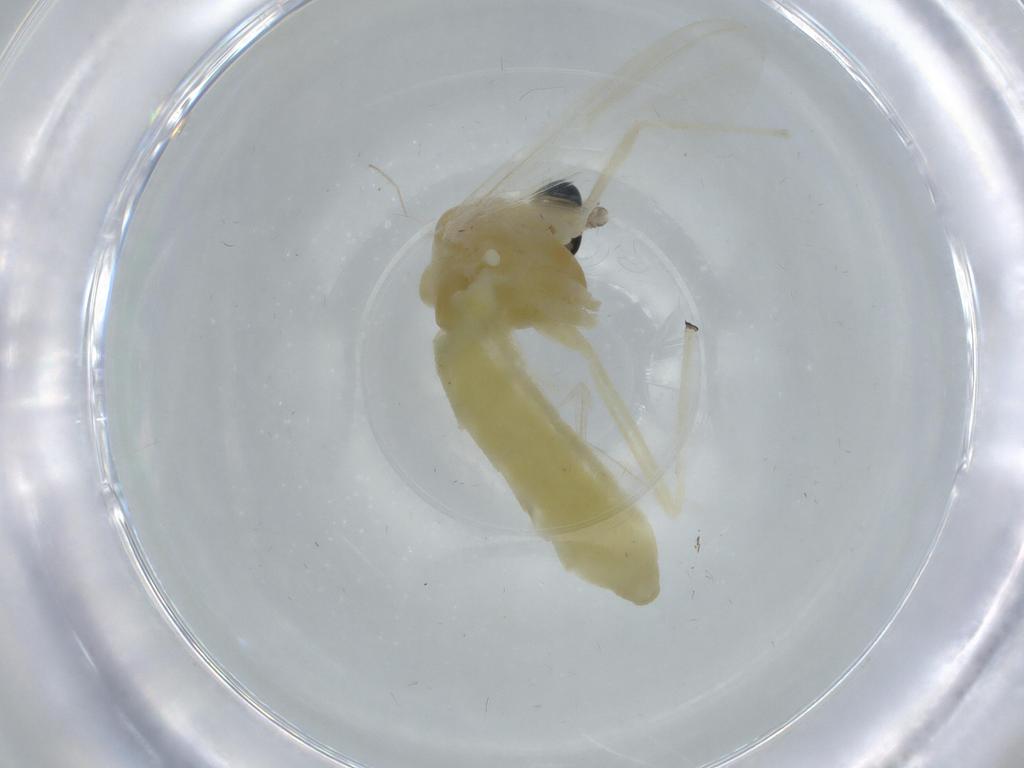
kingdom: Animalia
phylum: Arthropoda
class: Insecta
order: Diptera
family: Chironomidae
